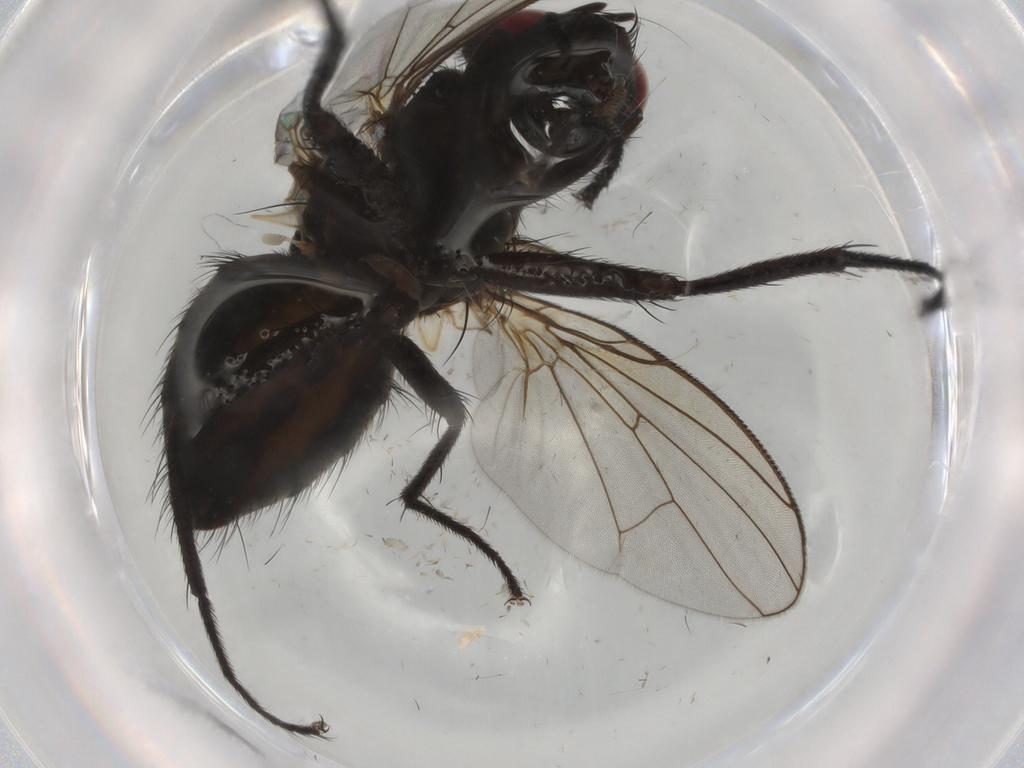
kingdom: Animalia
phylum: Arthropoda
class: Insecta
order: Diptera
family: Muscidae
